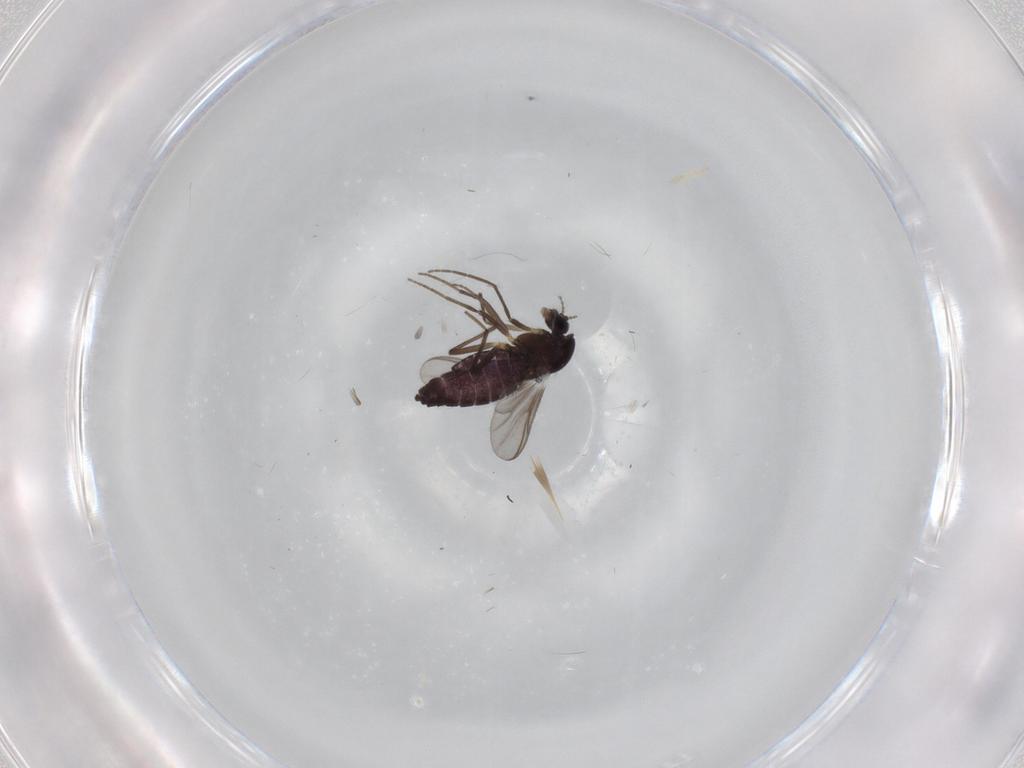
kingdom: Animalia
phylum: Arthropoda
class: Insecta
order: Diptera
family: Chironomidae
